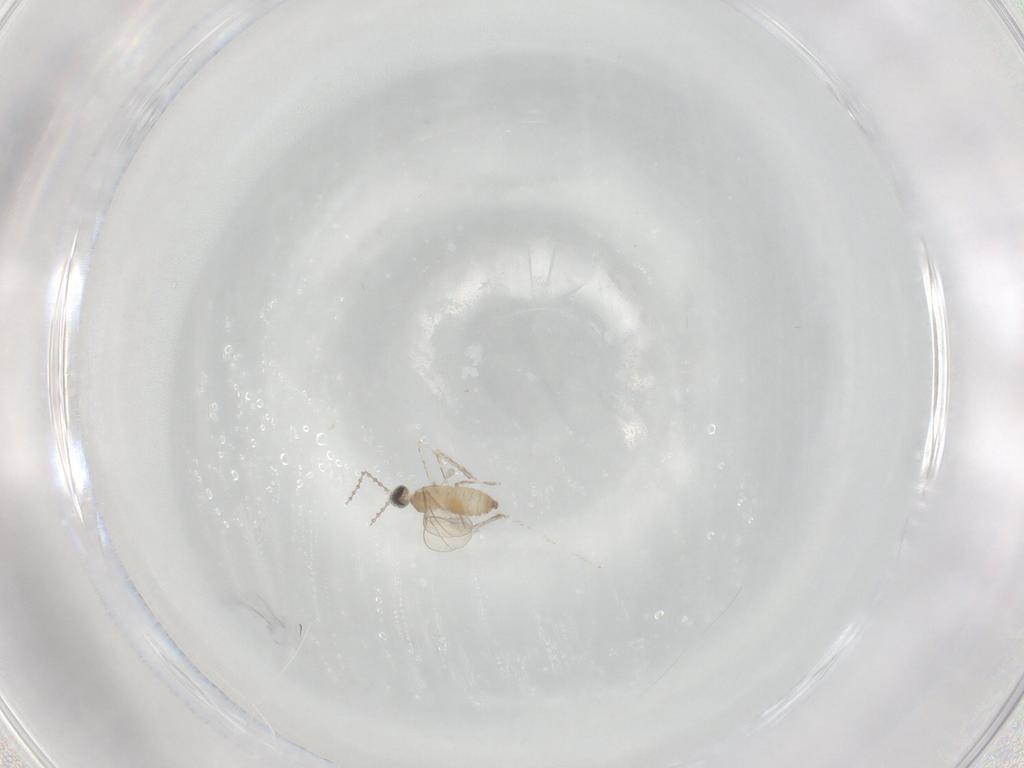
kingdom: Animalia
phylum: Arthropoda
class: Insecta
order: Diptera
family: Cecidomyiidae
